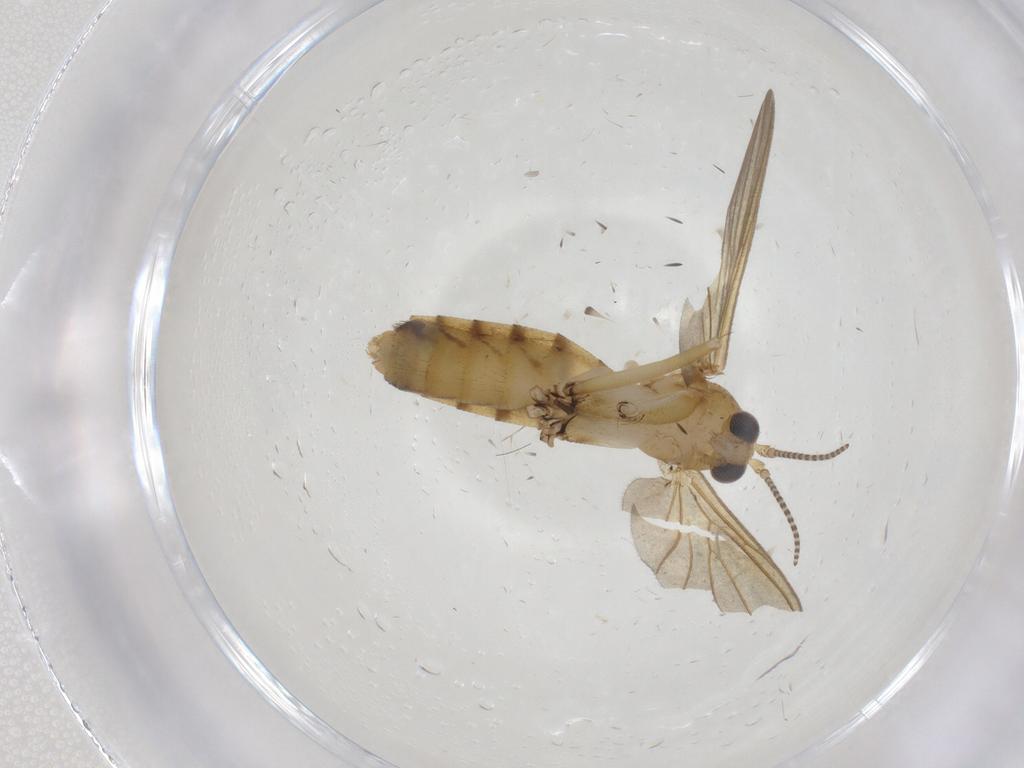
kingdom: Animalia
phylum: Arthropoda
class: Insecta
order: Diptera
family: Mycetophilidae
